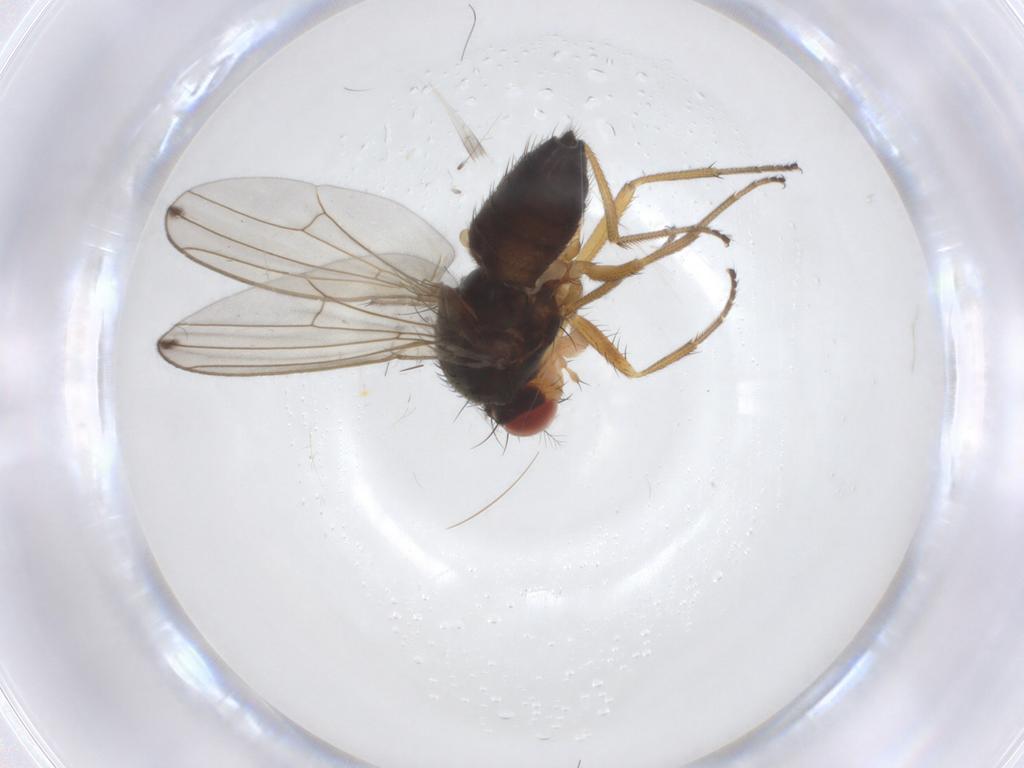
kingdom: Animalia
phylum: Arthropoda
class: Insecta
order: Diptera
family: Drosophilidae
